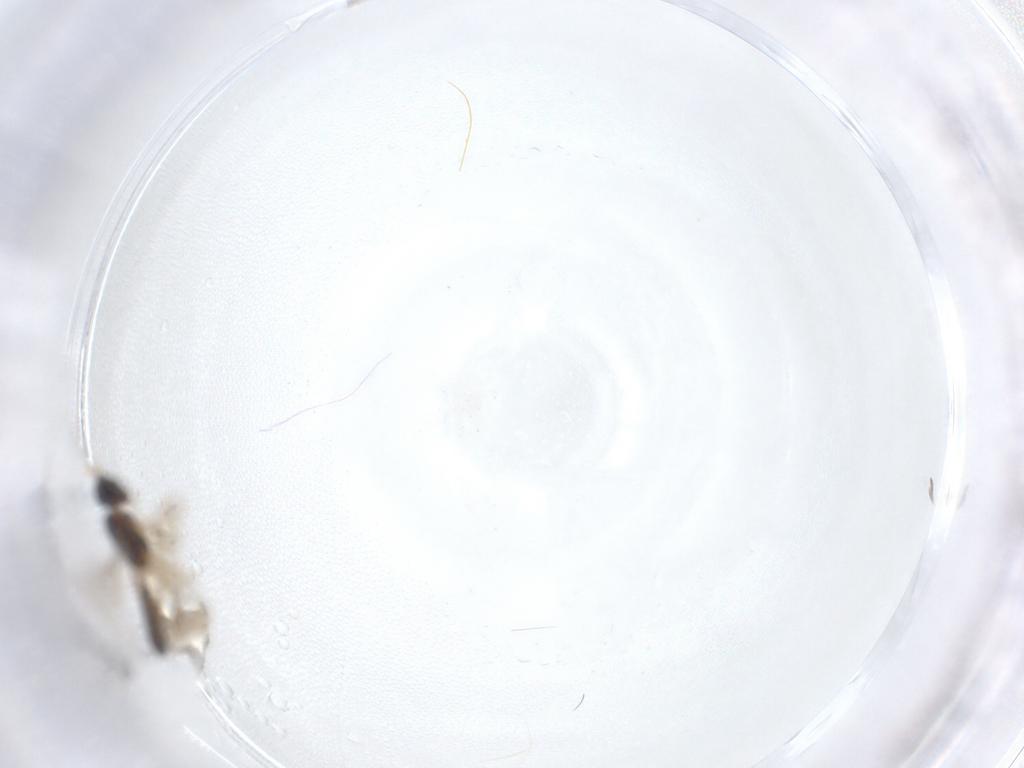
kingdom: Animalia
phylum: Arthropoda
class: Insecta
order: Hymenoptera
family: Braconidae
